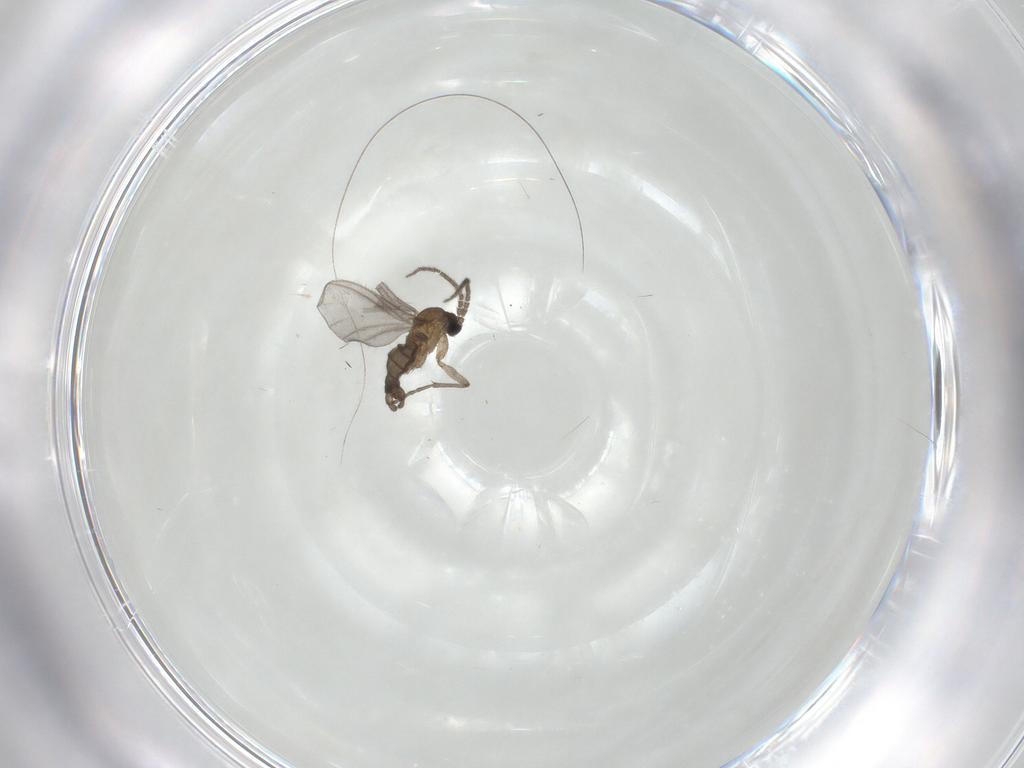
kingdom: Animalia
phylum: Arthropoda
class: Insecta
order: Diptera
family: Sciaridae
